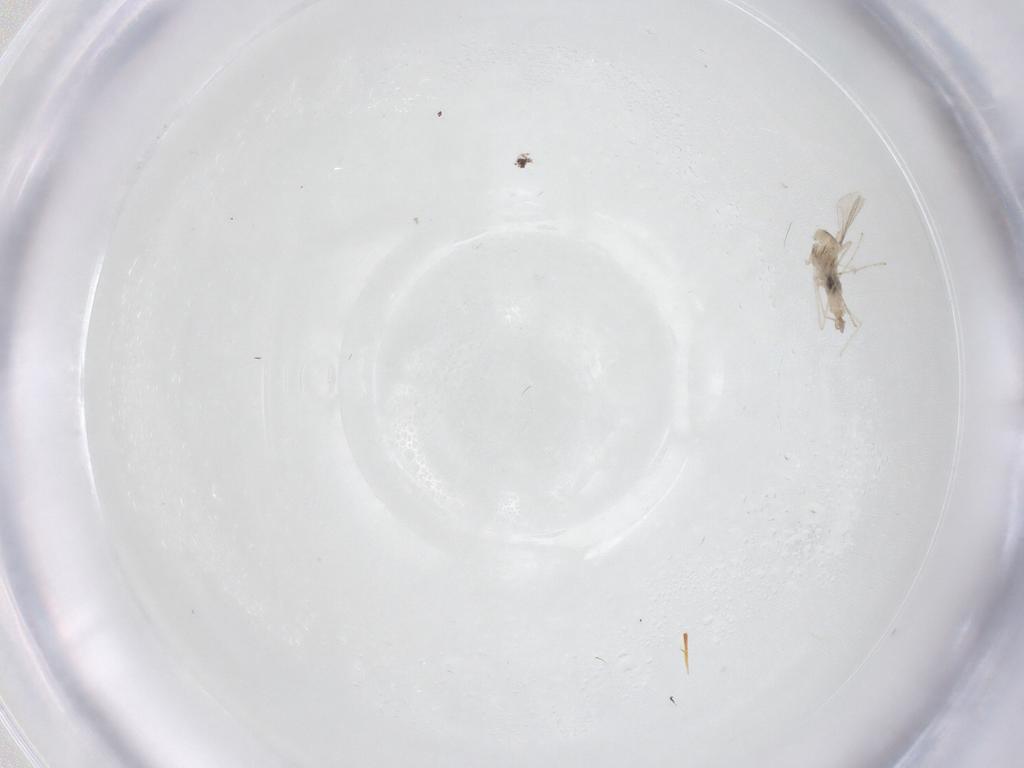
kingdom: Animalia
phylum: Arthropoda
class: Insecta
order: Diptera
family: Cecidomyiidae
